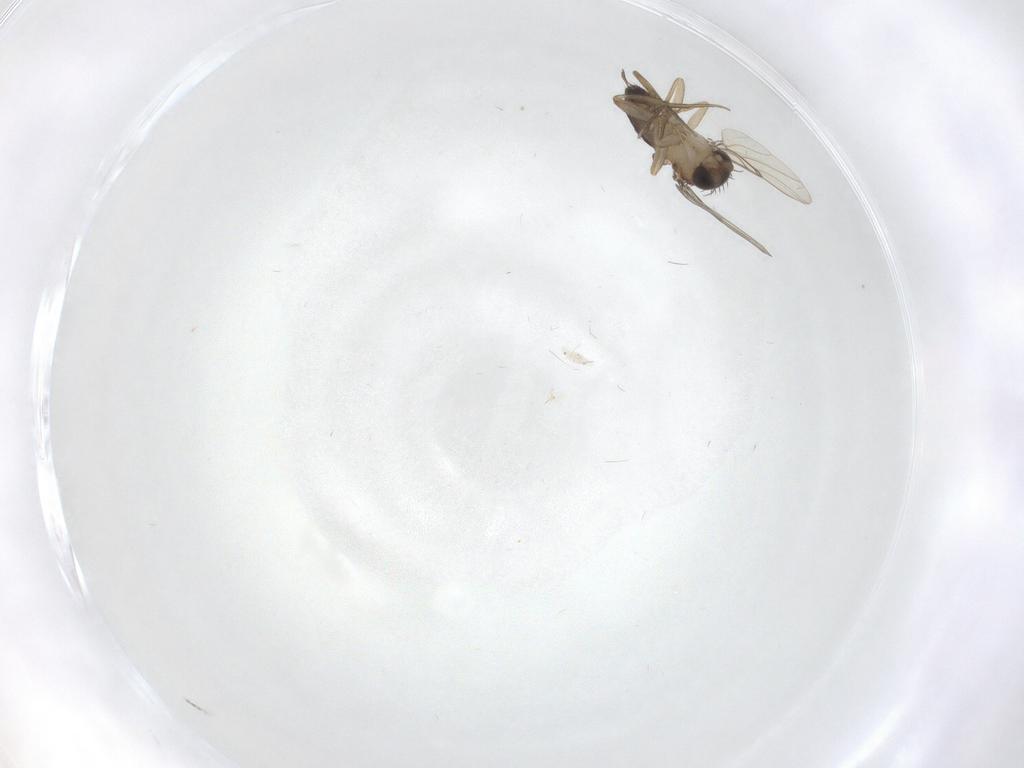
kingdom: Animalia
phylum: Arthropoda
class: Insecta
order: Diptera
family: Phoridae
